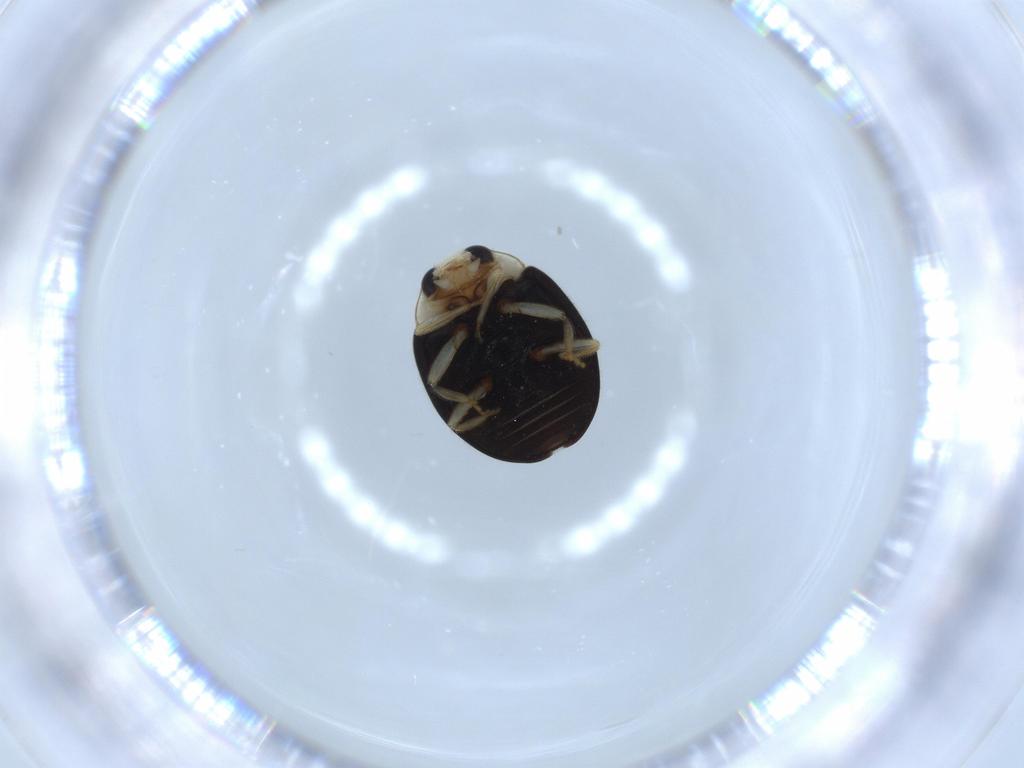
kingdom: Animalia
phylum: Arthropoda
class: Insecta
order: Coleoptera
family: Coccinellidae
